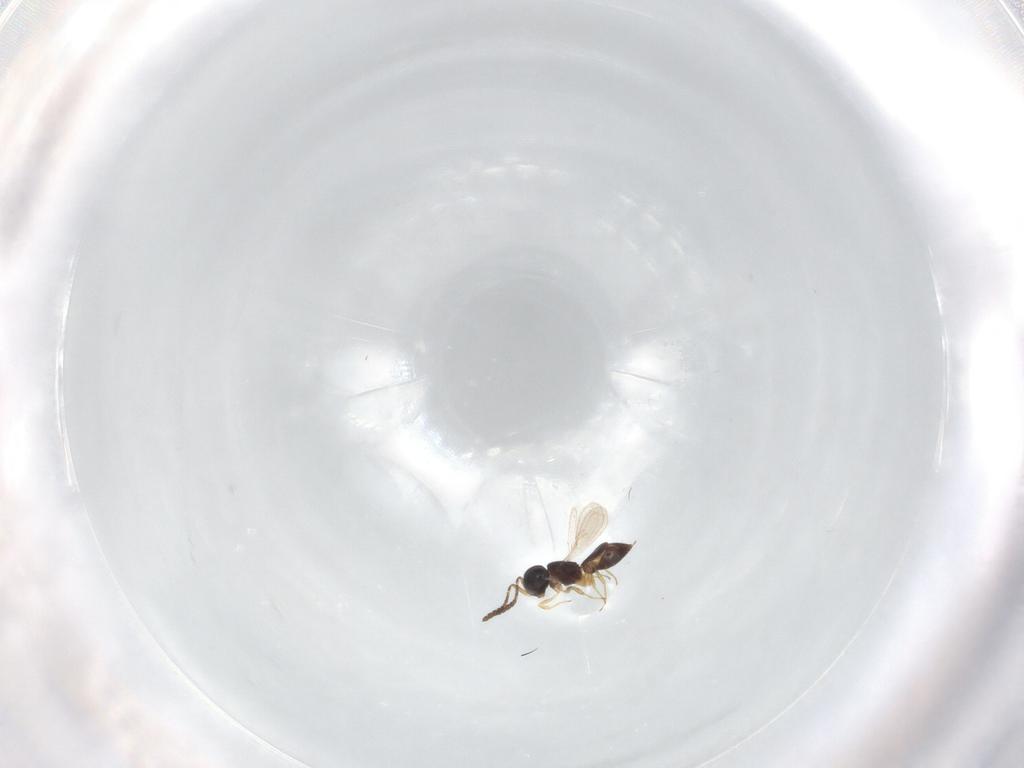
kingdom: Animalia
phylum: Arthropoda
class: Insecta
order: Hymenoptera
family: Scelionidae
